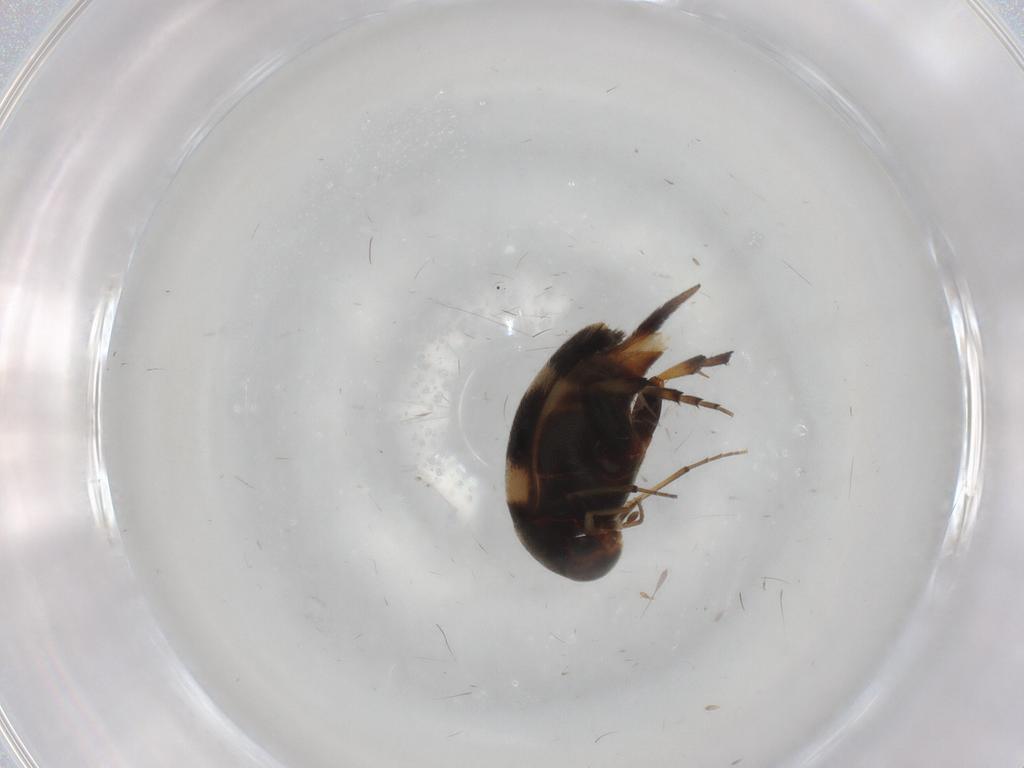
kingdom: Animalia
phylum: Arthropoda
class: Insecta
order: Coleoptera
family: Mordellidae
